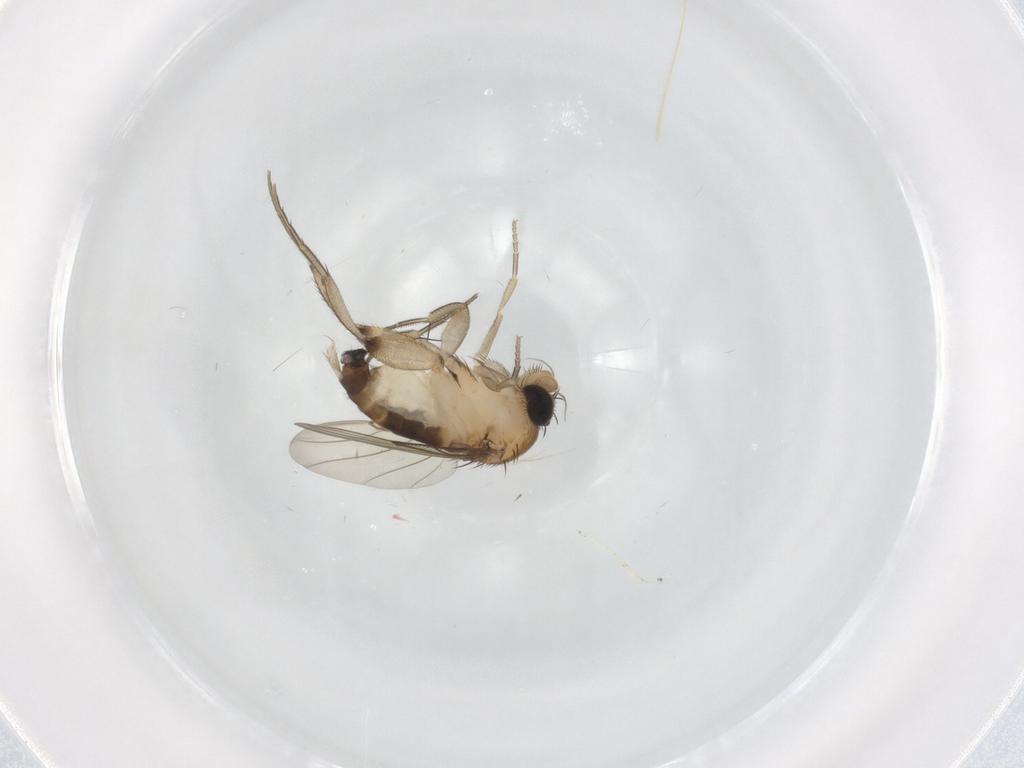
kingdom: Animalia
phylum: Arthropoda
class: Insecta
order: Diptera
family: Phoridae
